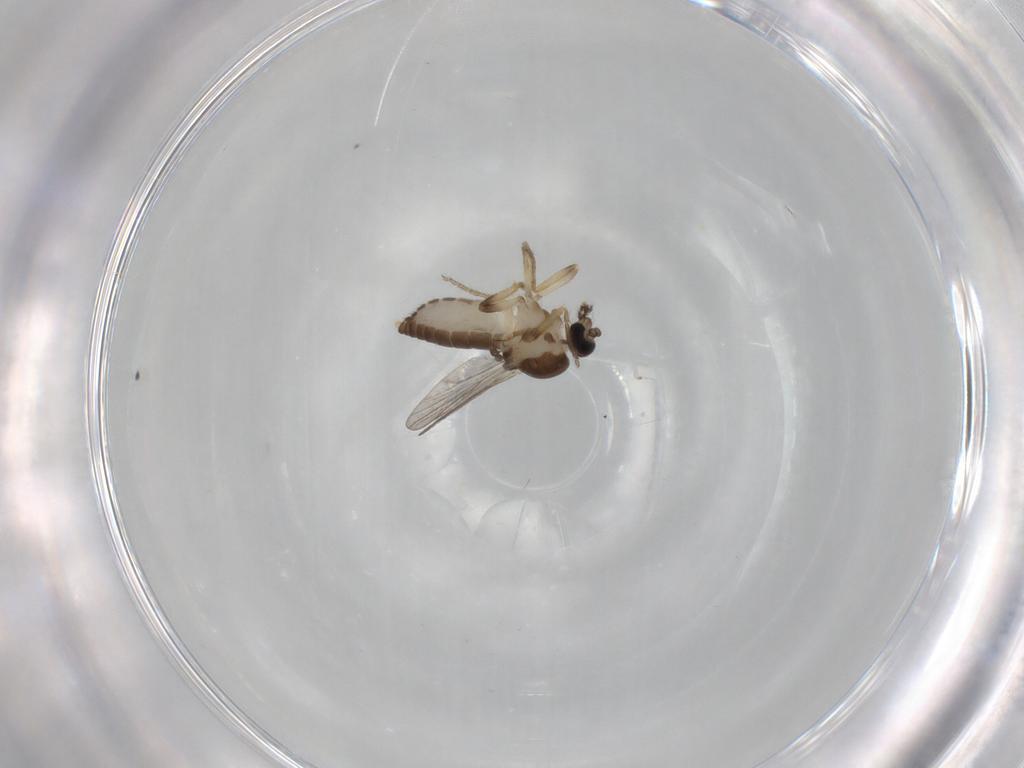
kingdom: Animalia
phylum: Arthropoda
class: Insecta
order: Diptera
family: Ceratopogonidae
